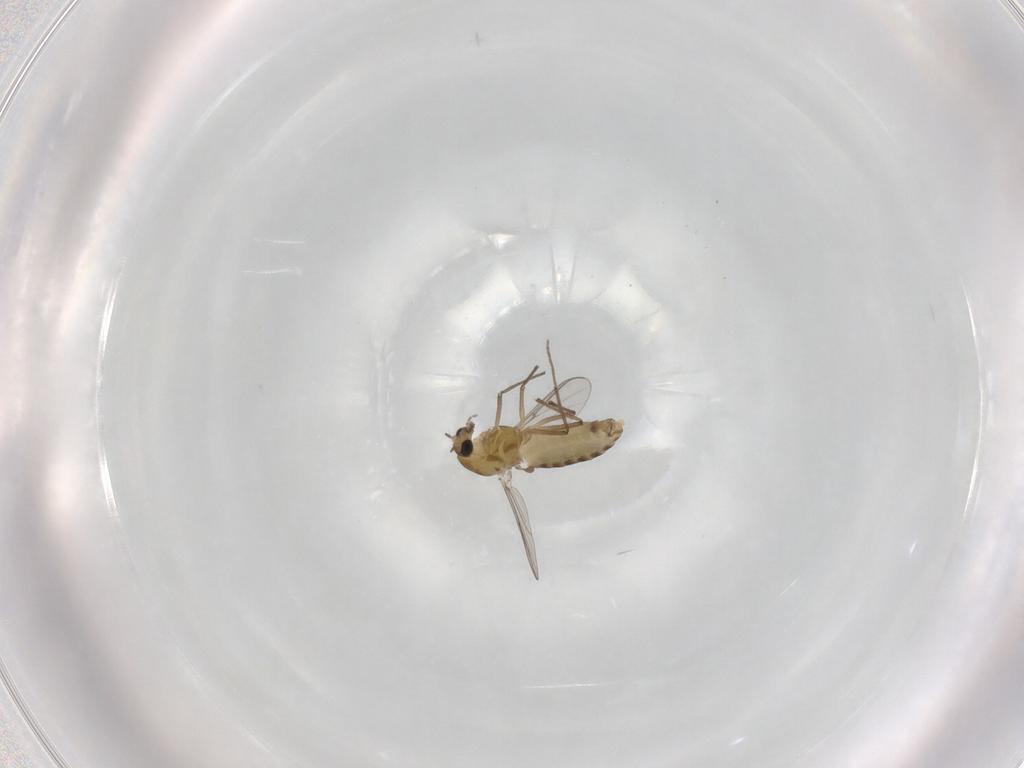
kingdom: Animalia
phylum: Arthropoda
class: Insecta
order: Diptera
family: Chironomidae
